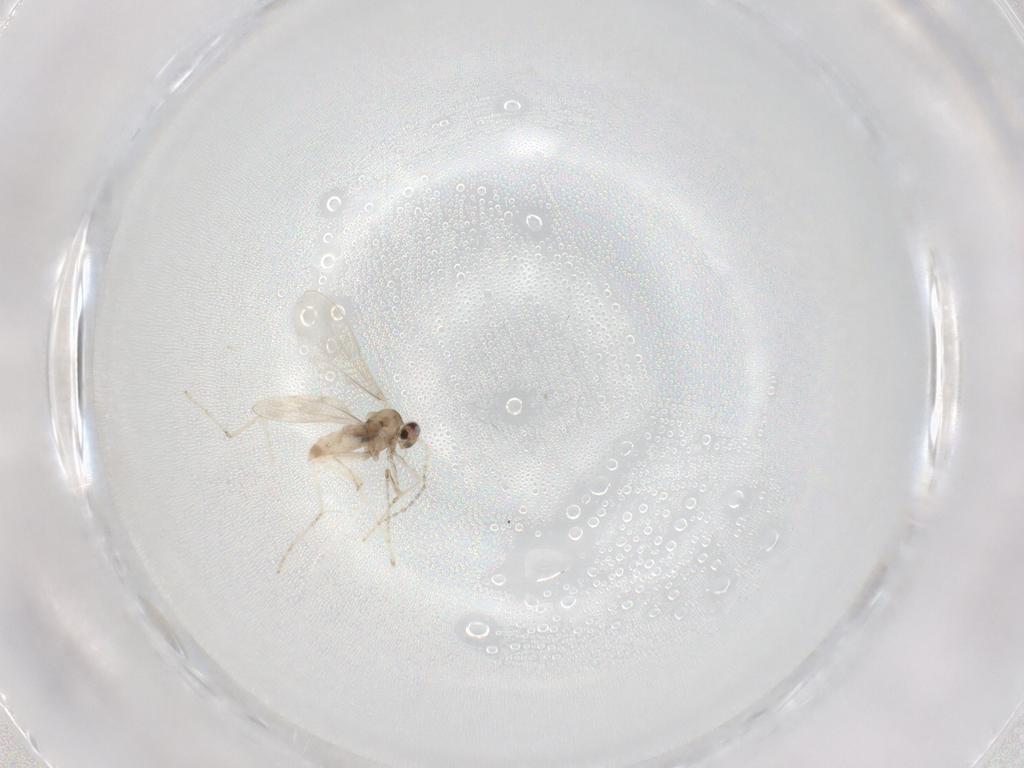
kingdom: Animalia
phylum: Arthropoda
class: Insecta
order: Diptera
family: Cecidomyiidae
